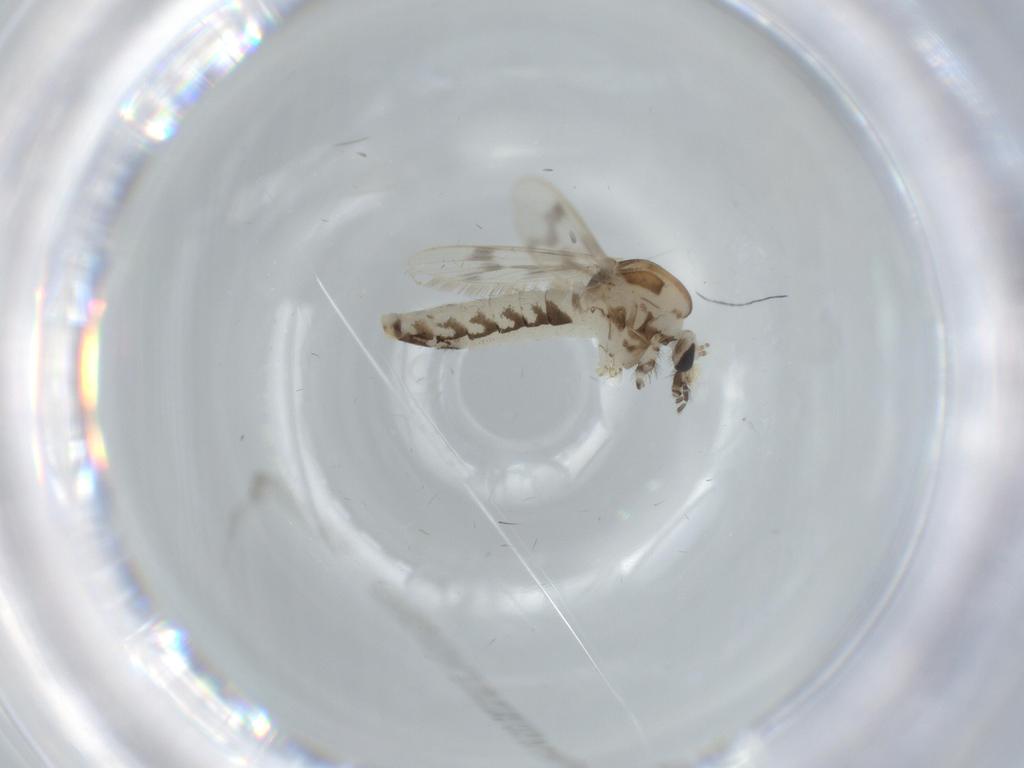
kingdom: Animalia
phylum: Arthropoda
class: Insecta
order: Diptera
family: Corethrellidae
